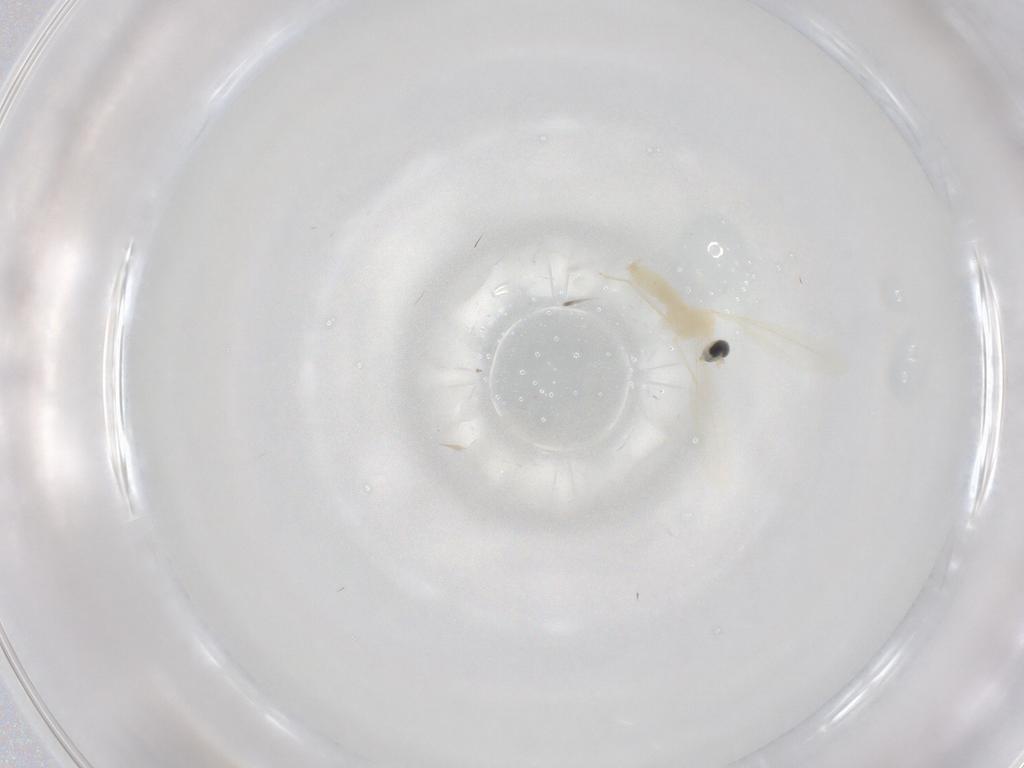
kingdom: Animalia
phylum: Arthropoda
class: Insecta
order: Diptera
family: Cecidomyiidae
